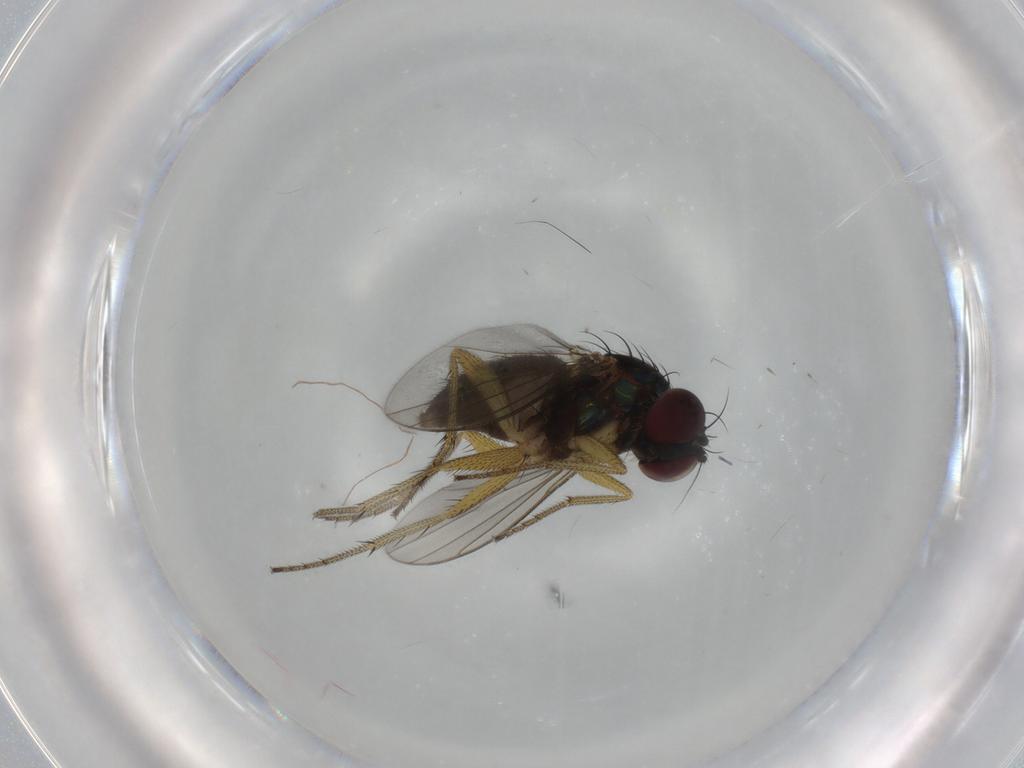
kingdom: Animalia
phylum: Arthropoda
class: Insecta
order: Diptera
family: Dolichopodidae
